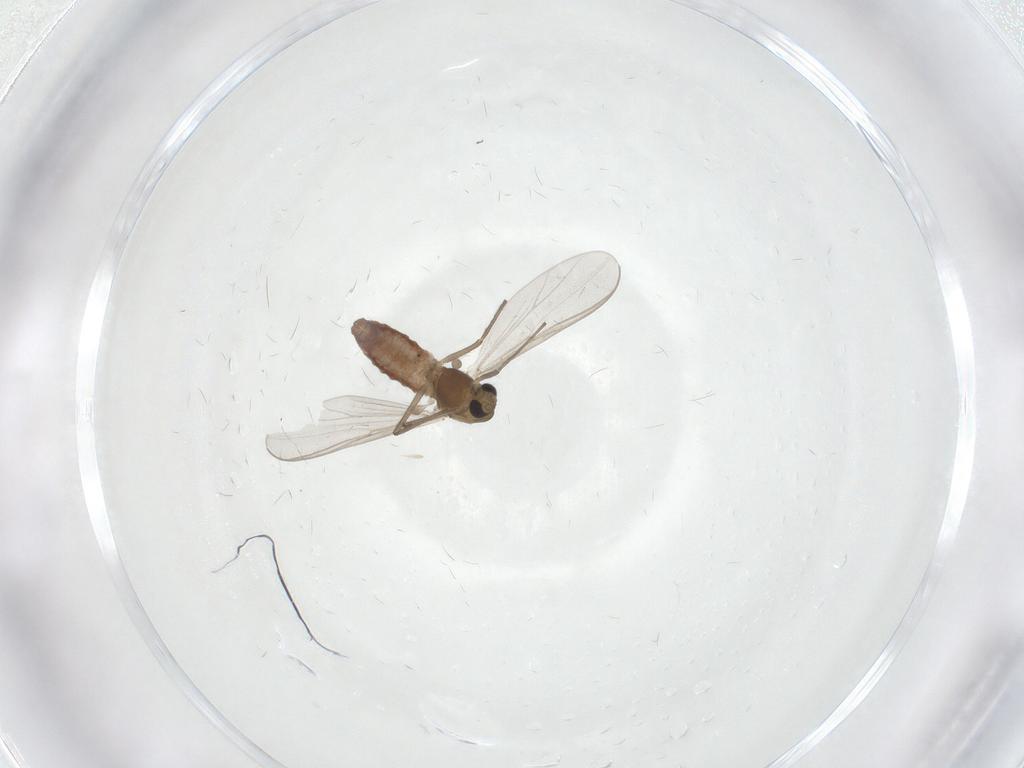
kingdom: Animalia
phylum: Arthropoda
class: Insecta
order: Diptera
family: Chironomidae
